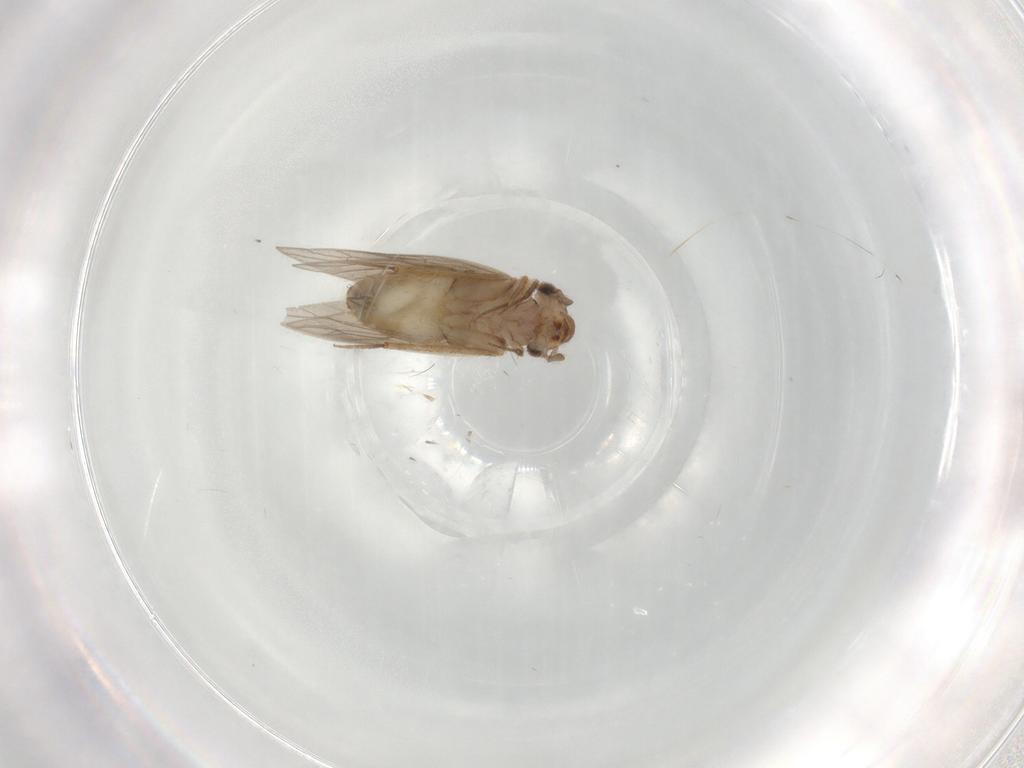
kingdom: Animalia
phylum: Arthropoda
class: Insecta
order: Psocodea
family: Lepidopsocidae
